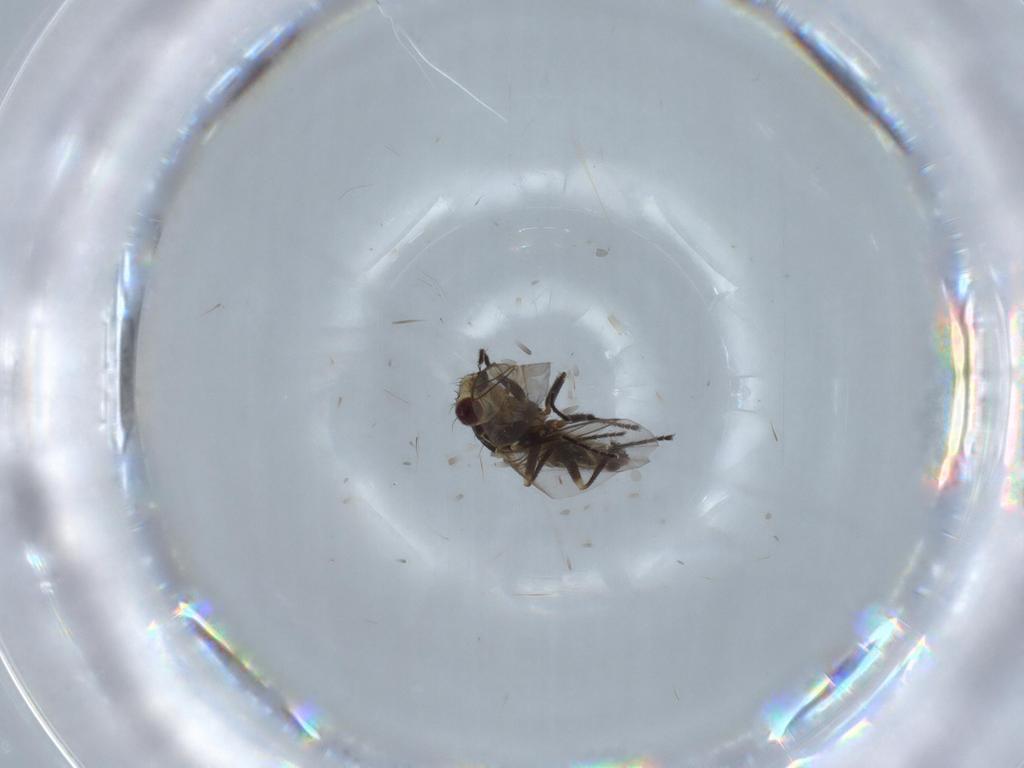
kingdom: Animalia
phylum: Arthropoda
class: Insecta
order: Diptera
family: Agromyzidae
